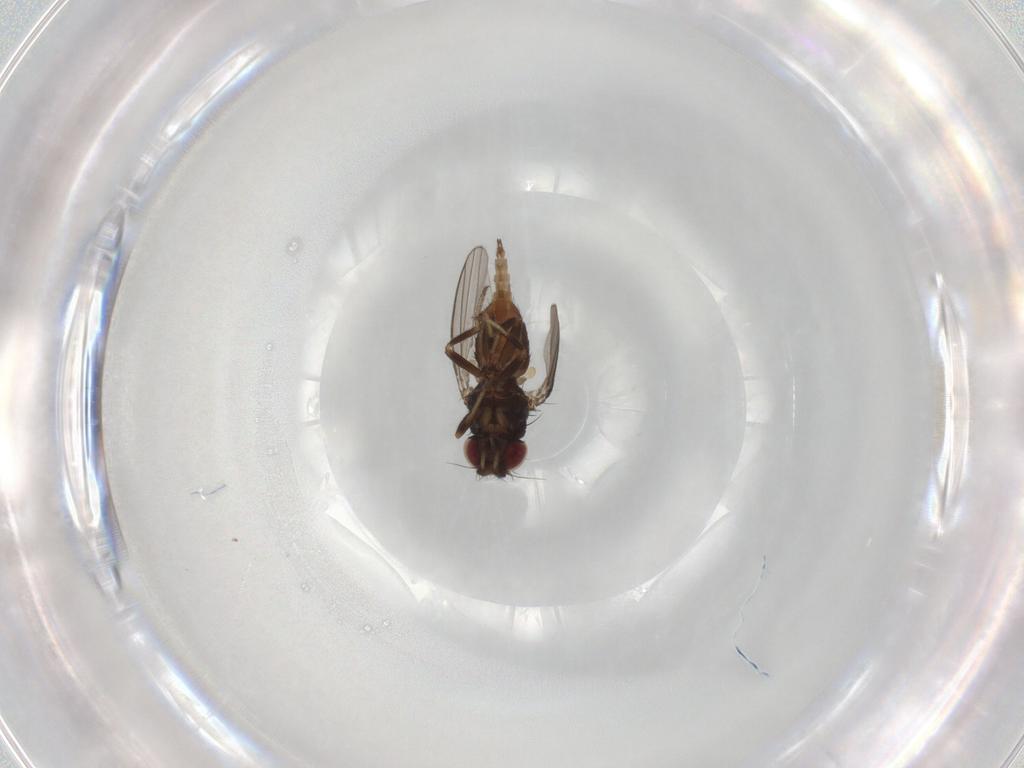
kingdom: Animalia
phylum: Arthropoda
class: Insecta
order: Diptera
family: Milichiidae
